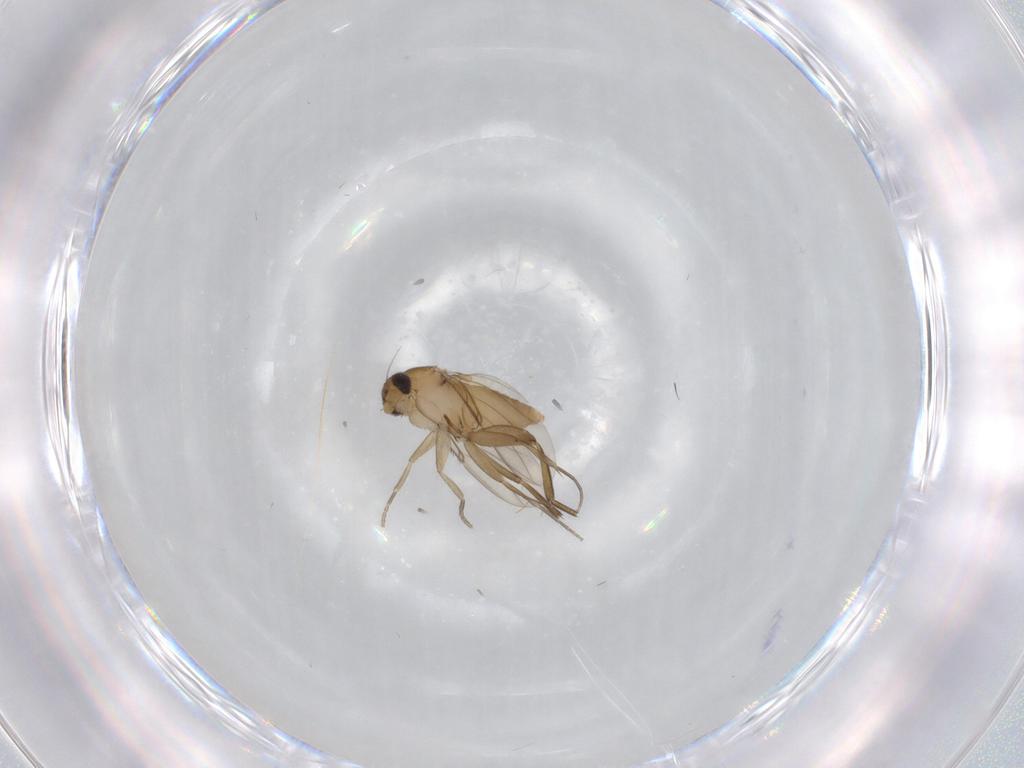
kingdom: Animalia
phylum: Arthropoda
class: Insecta
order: Diptera
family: Phoridae
